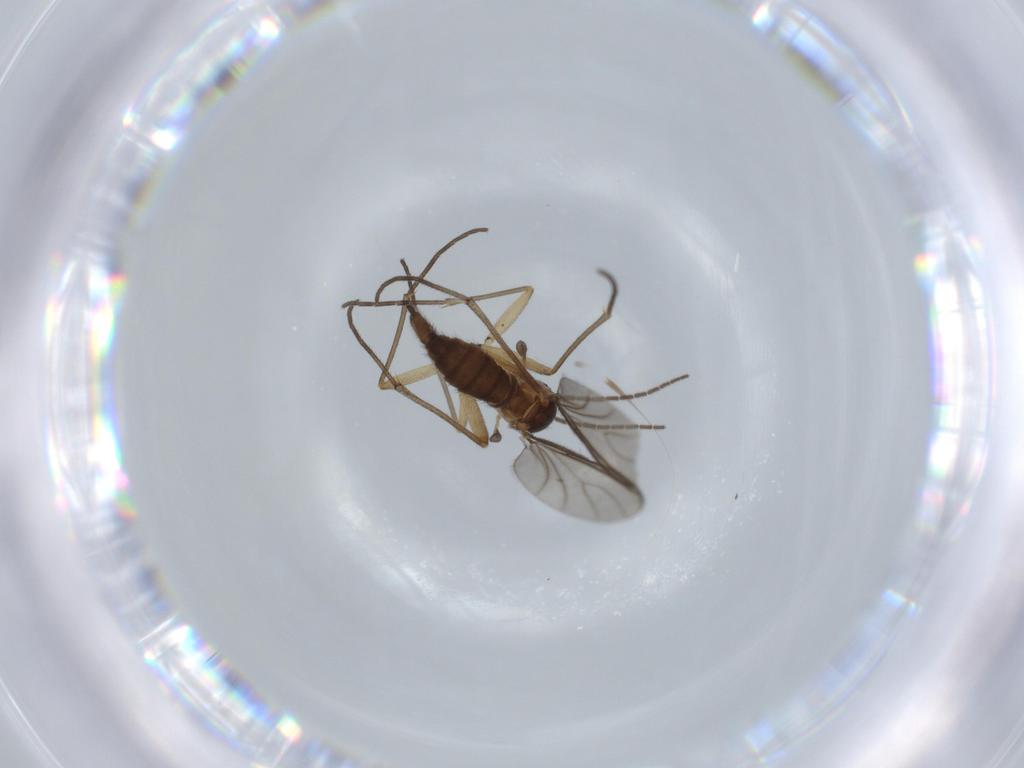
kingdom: Animalia
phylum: Arthropoda
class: Insecta
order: Diptera
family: Sciaridae
